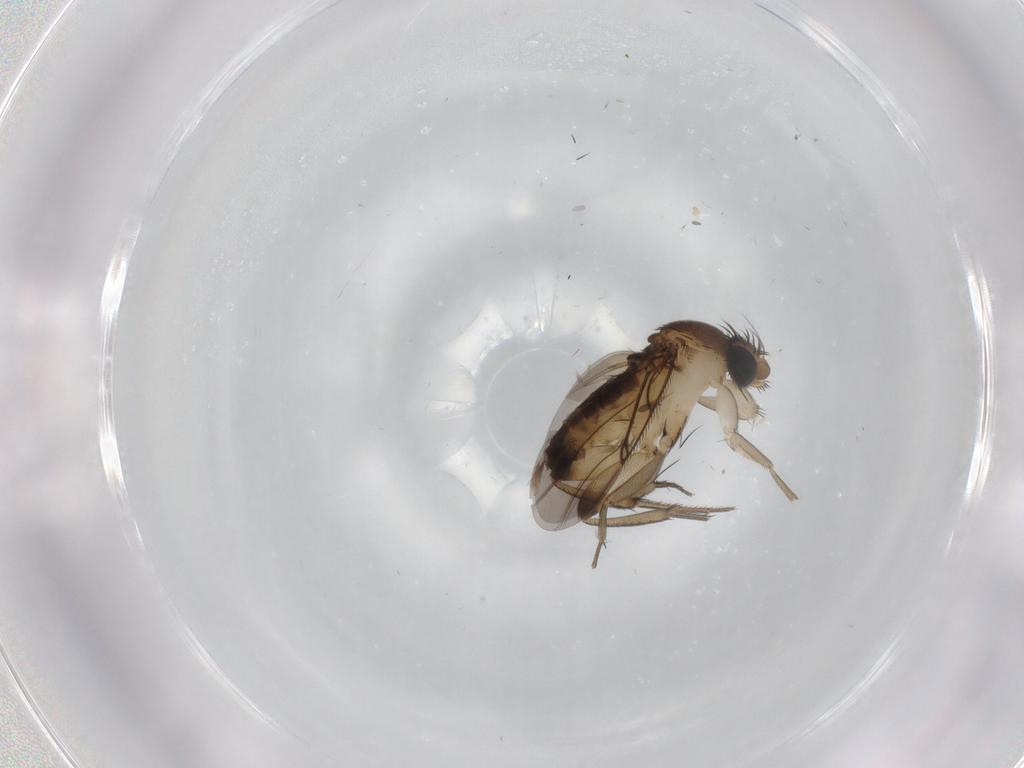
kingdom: Animalia
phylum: Arthropoda
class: Insecta
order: Diptera
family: Phoridae
